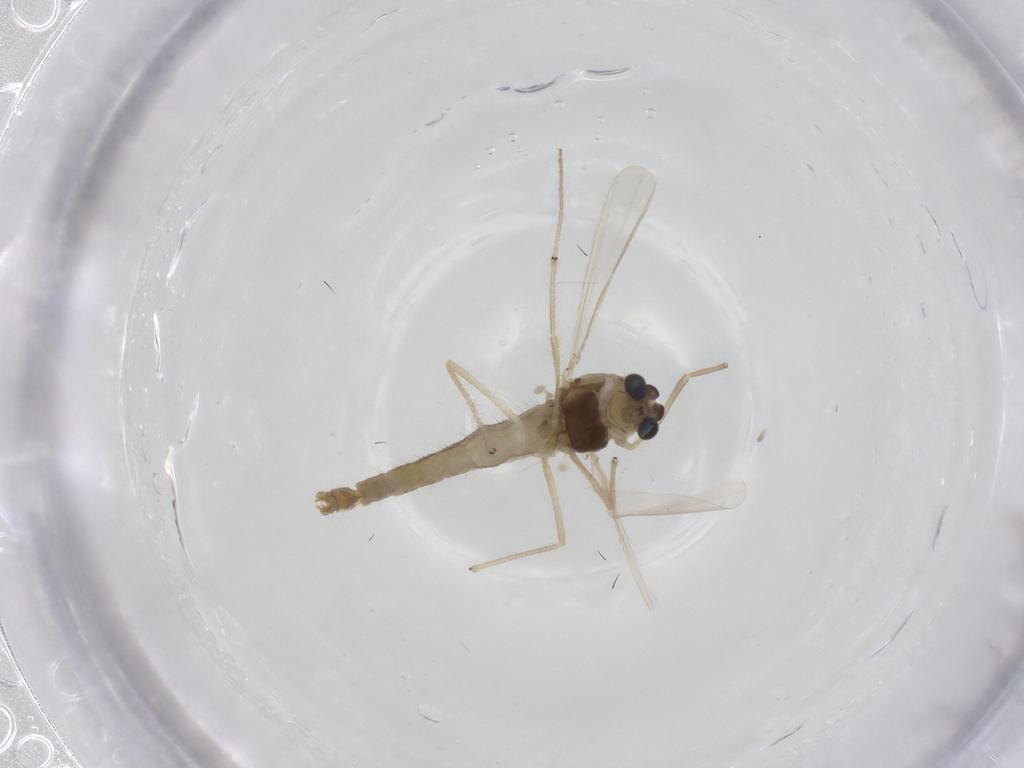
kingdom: Animalia
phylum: Arthropoda
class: Insecta
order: Diptera
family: Chironomidae
